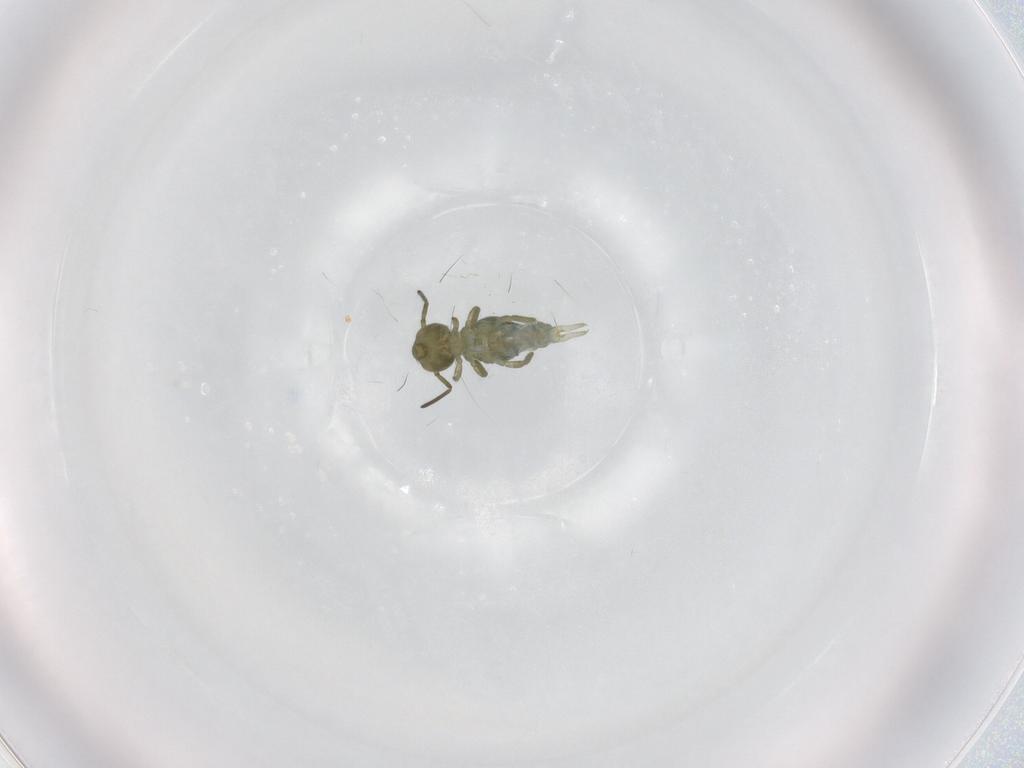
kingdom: Animalia
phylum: Arthropoda
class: Collembola
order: Symphypleona
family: Sminthuridae
